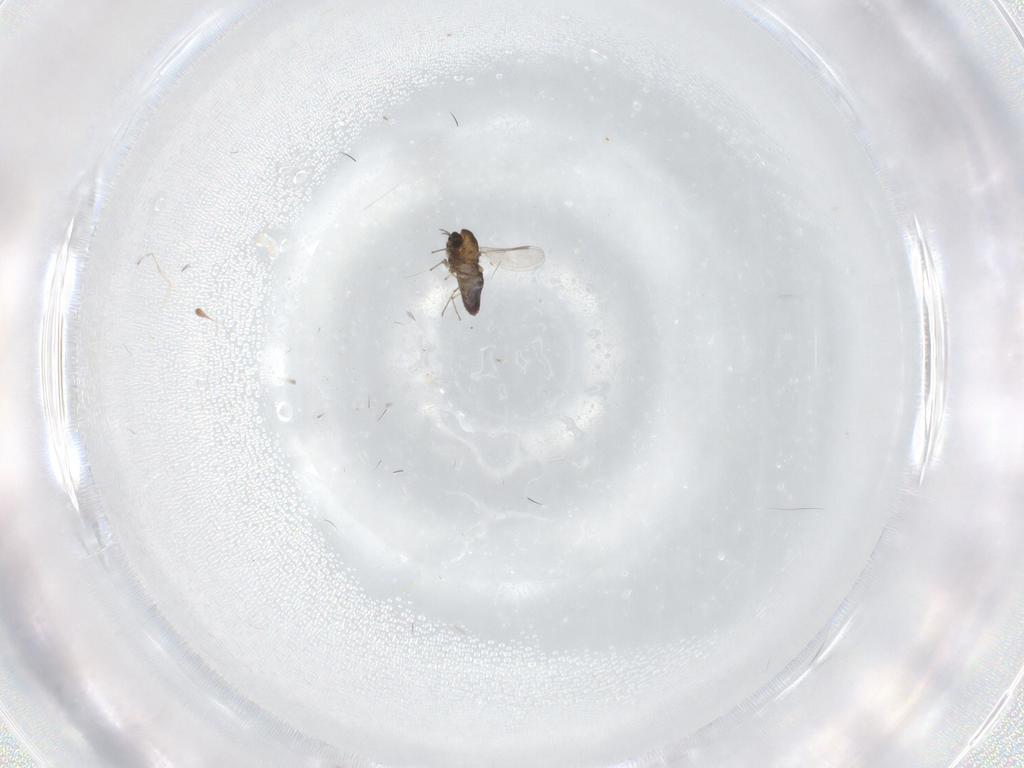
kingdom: Animalia
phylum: Arthropoda
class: Insecta
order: Diptera
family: Chironomidae
